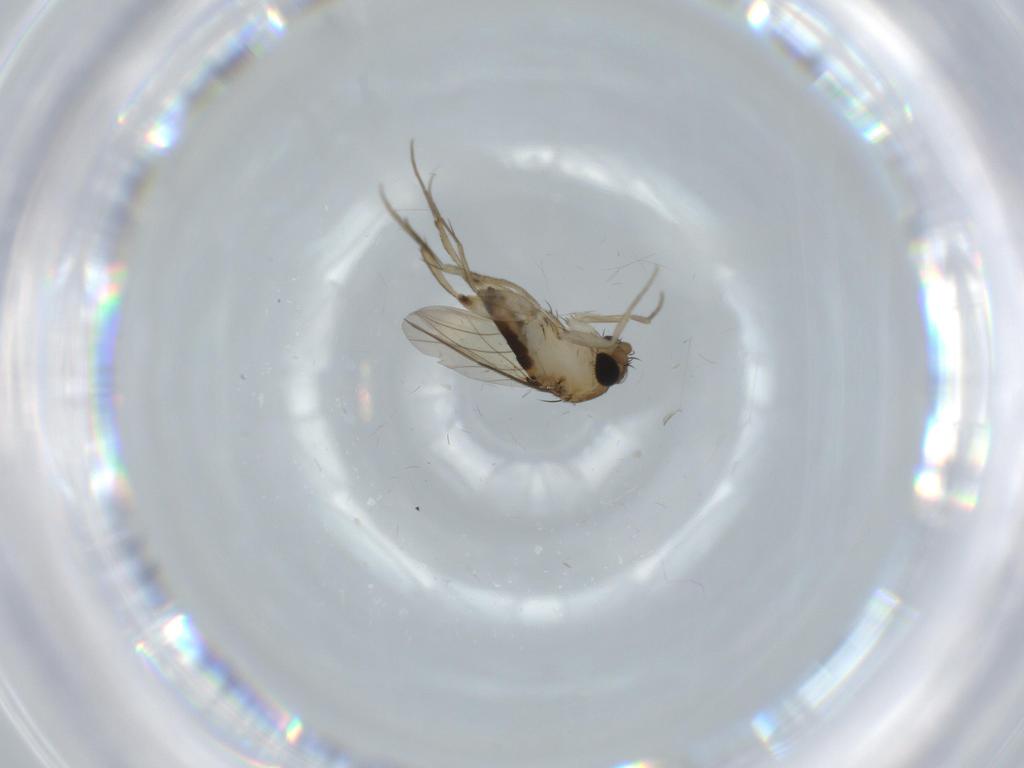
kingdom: Animalia
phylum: Arthropoda
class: Insecta
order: Diptera
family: Phoridae
